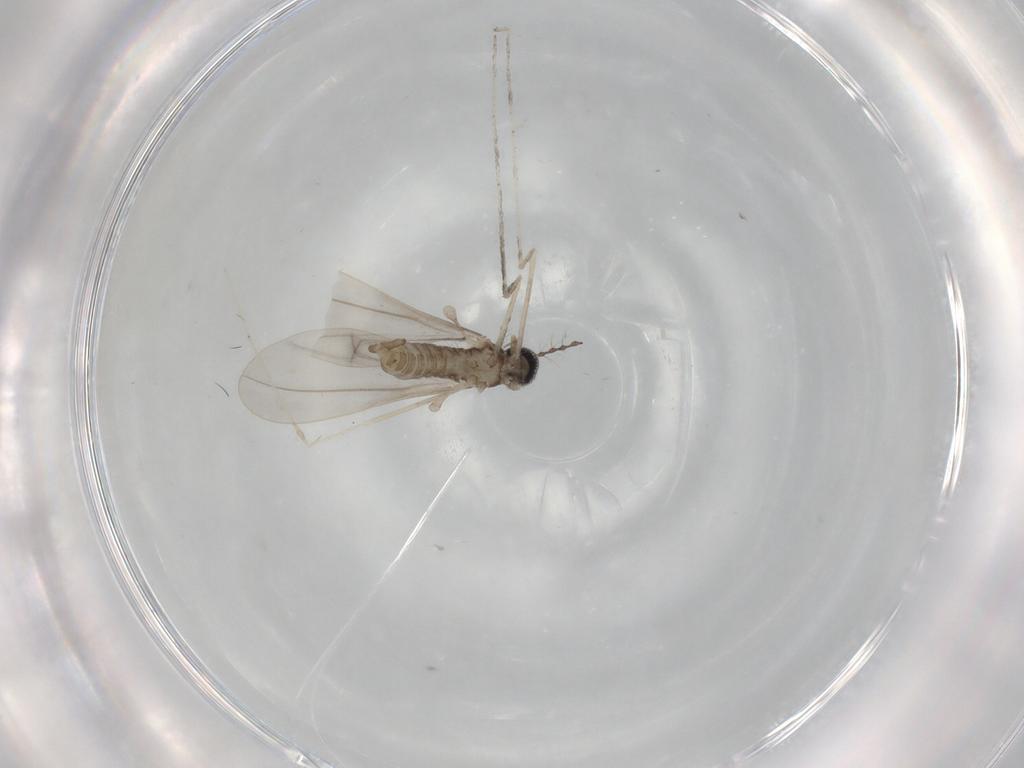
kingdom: Animalia
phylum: Arthropoda
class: Insecta
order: Diptera
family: Cecidomyiidae
